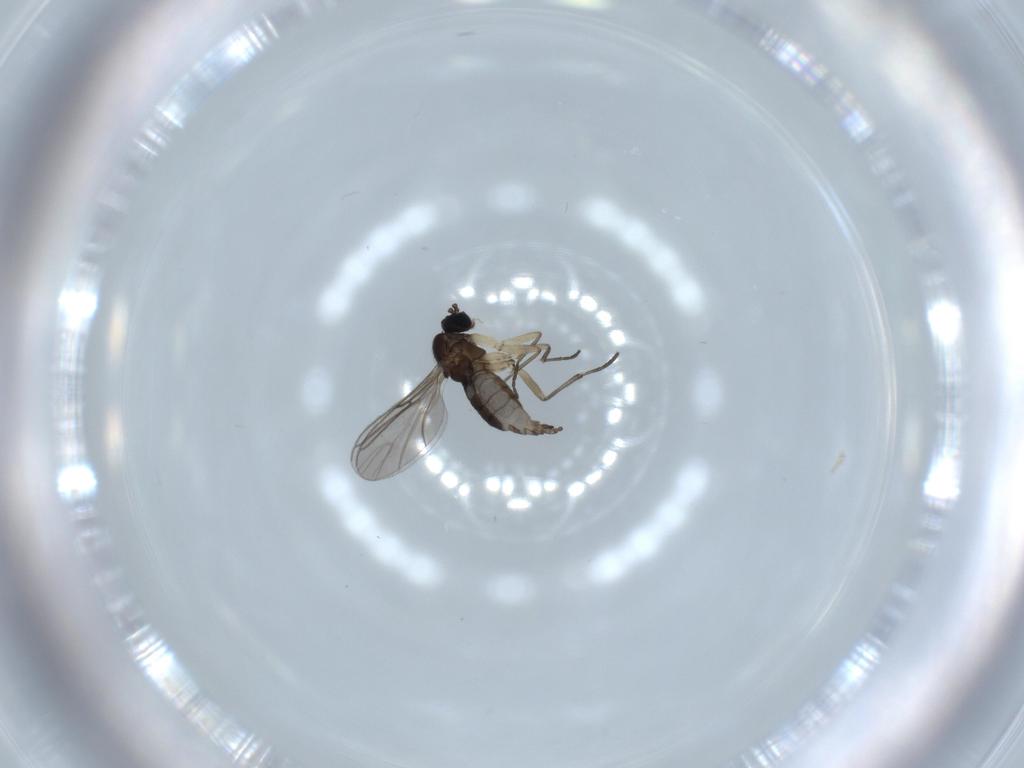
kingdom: Animalia
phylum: Arthropoda
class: Insecta
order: Diptera
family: Sciaridae
